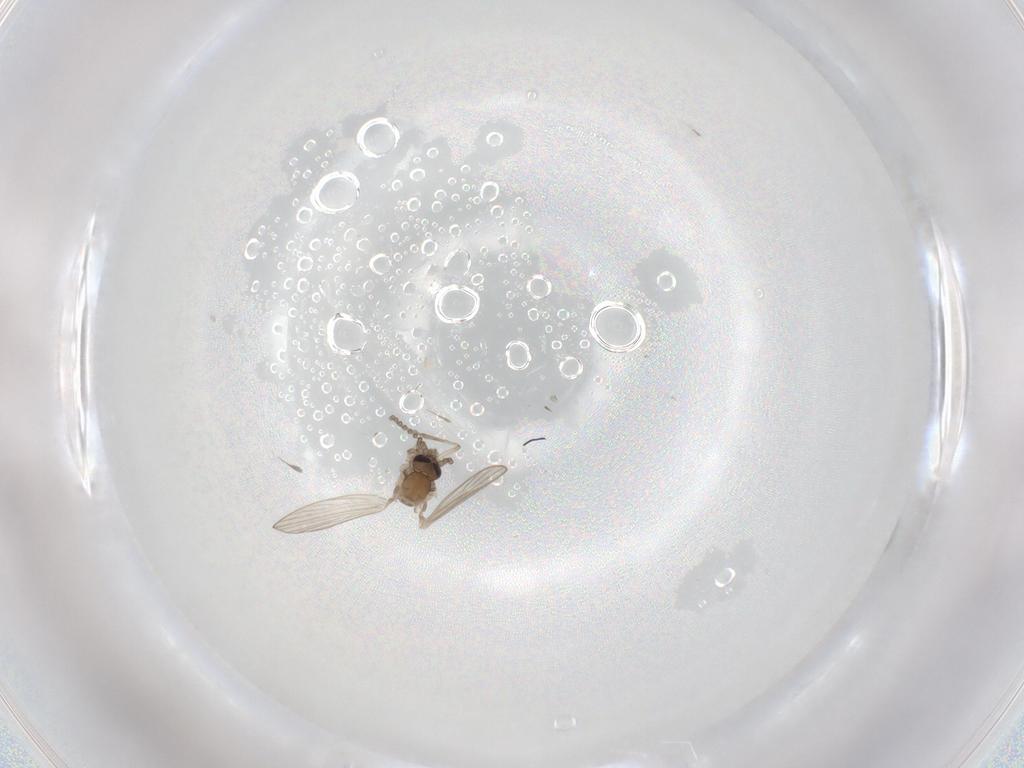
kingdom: Animalia
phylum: Arthropoda
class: Insecta
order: Diptera
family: Psychodidae
